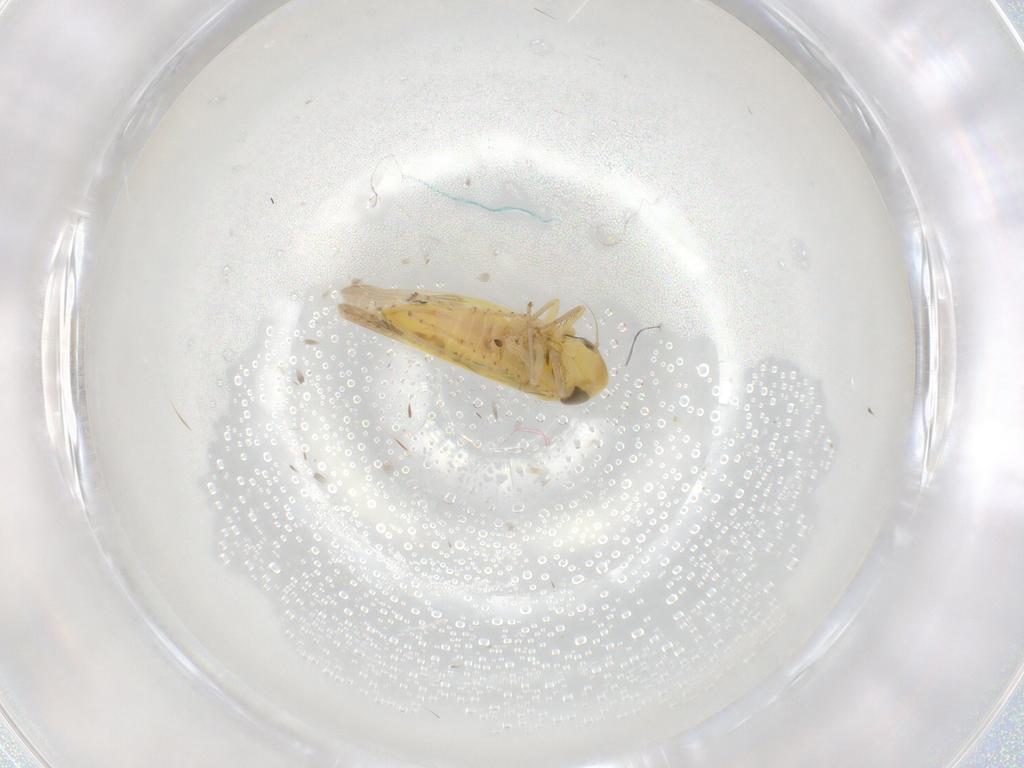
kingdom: Animalia
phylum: Arthropoda
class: Insecta
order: Hemiptera
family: Cicadellidae
